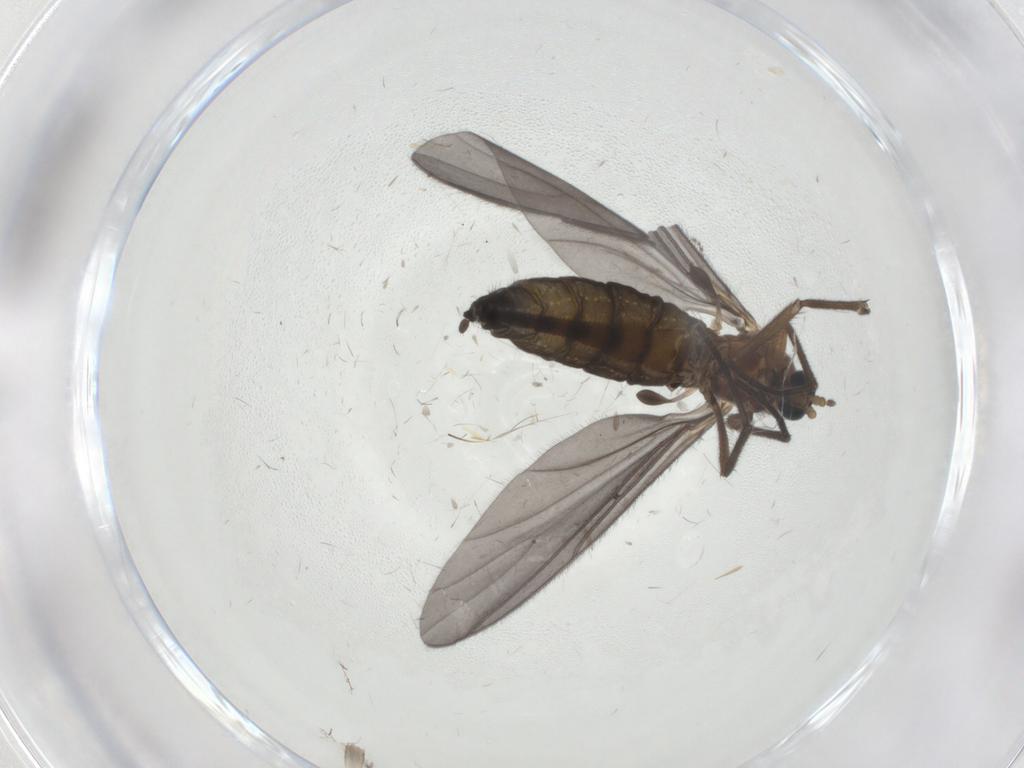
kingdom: Animalia
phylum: Arthropoda
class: Insecta
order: Diptera
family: Cecidomyiidae
